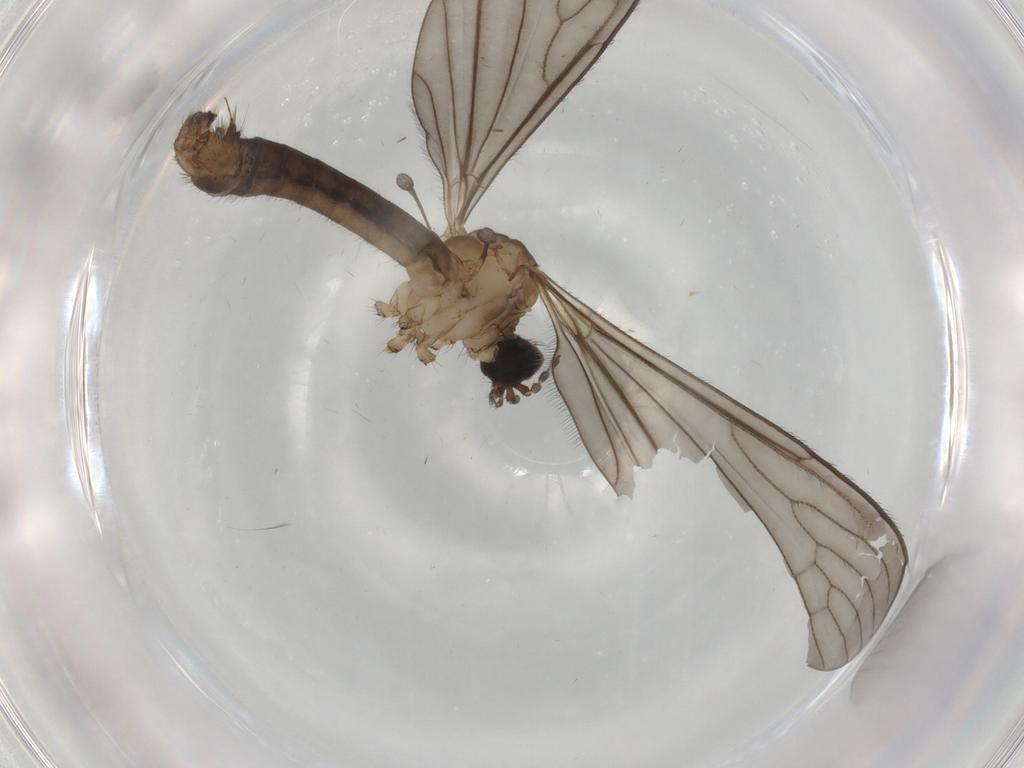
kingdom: Animalia
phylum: Arthropoda
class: Insecta
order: Diptera
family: Cecidomyiidae
